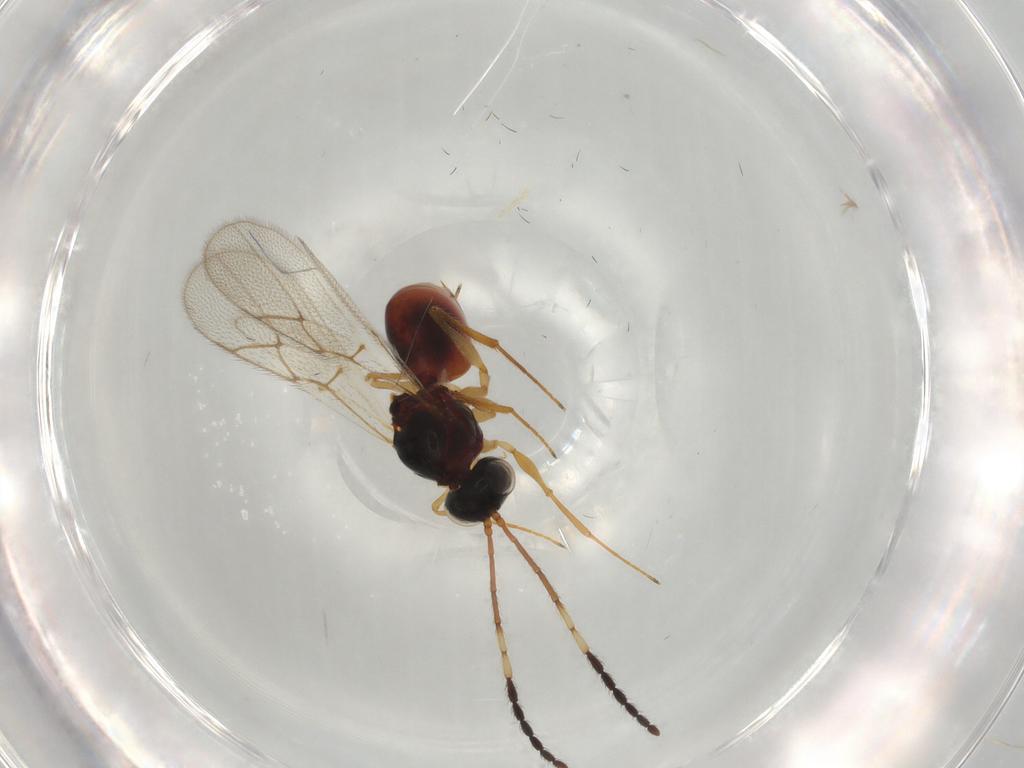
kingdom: Animalia
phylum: Arthropoda
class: Insecta
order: Hymenoptera
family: Figitidae
